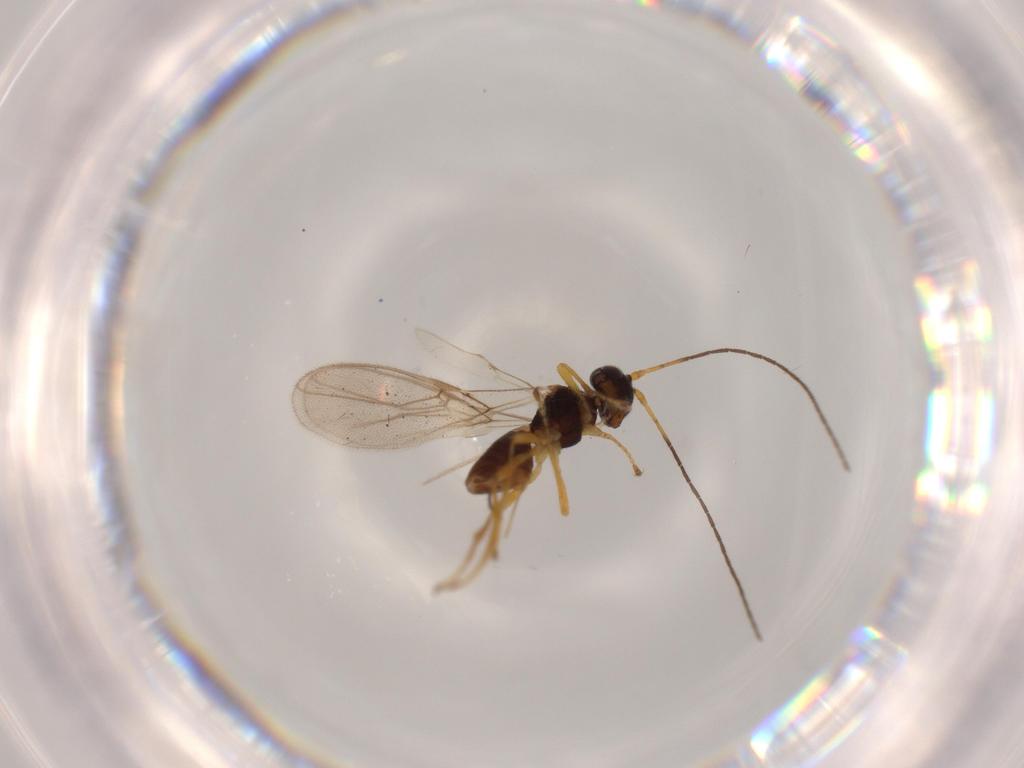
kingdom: Animalia
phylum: Arthropoda
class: Insecta
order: Hymenoptera
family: Braconidae
